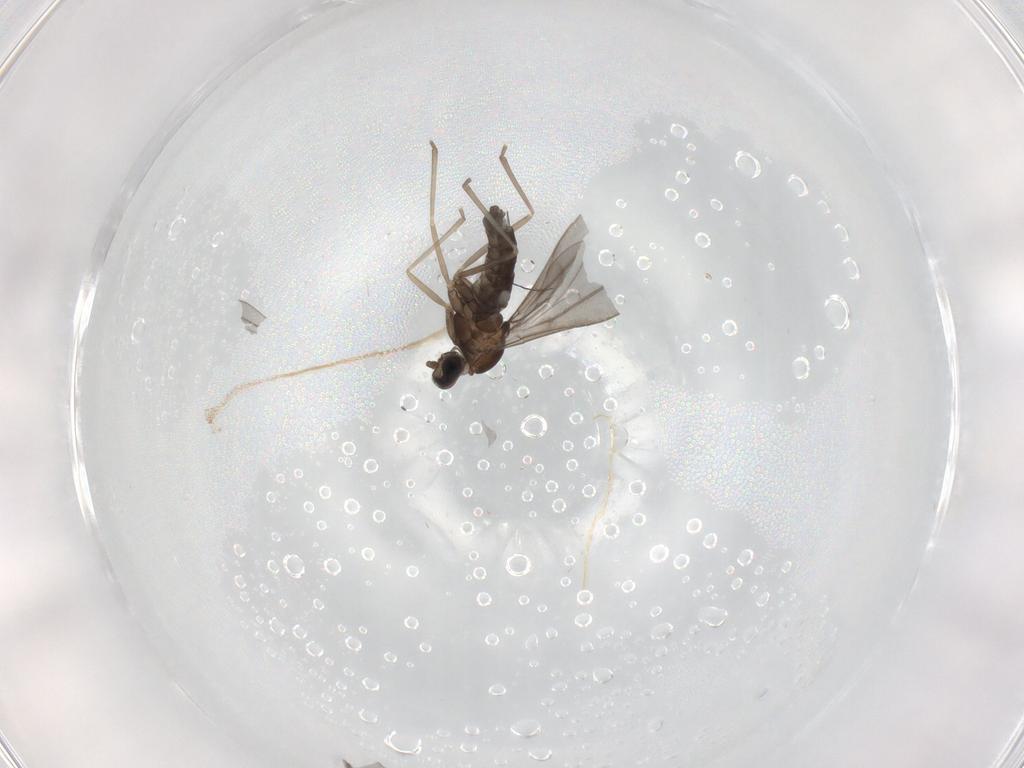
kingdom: Animalia
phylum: Arthropoda
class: Insecta
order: Diptera
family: Cecidomyiidae
